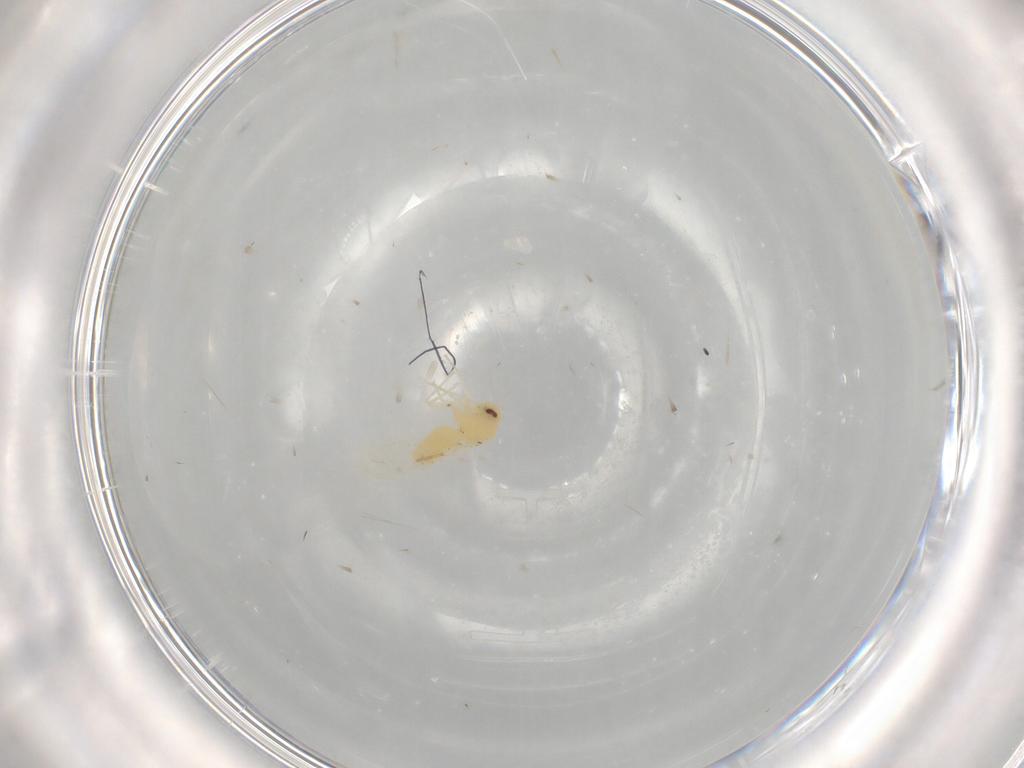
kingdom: Animalia
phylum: Arthropoda
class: Insecta
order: Hemiptera
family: Aleyrodidae
